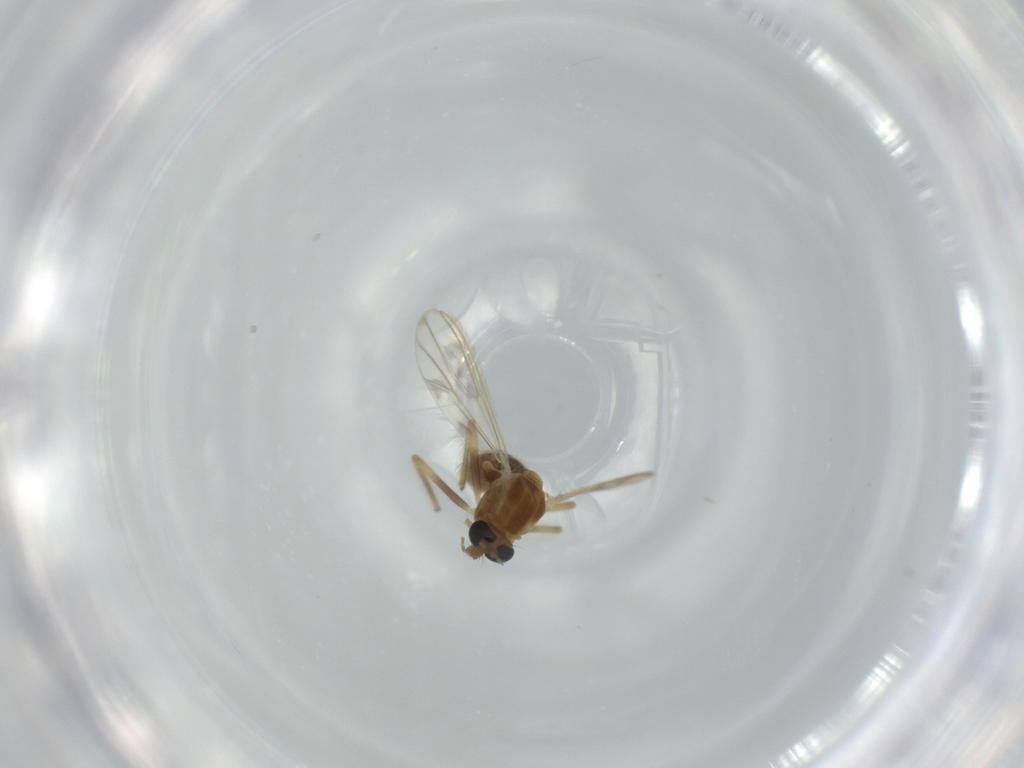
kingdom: Animalia
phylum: Arthropoda
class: Insecta
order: Diptera
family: Chironomidae
